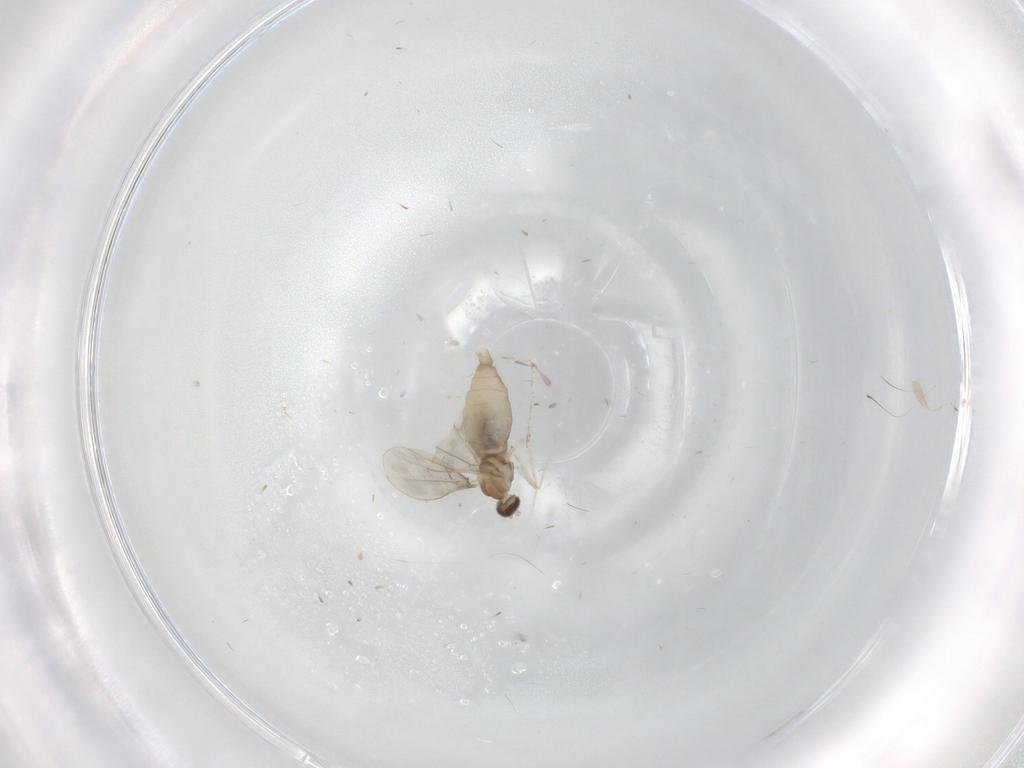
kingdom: Animalia
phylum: Arthropoda
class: Insecta
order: Diptera
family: Cecidomyiidae
